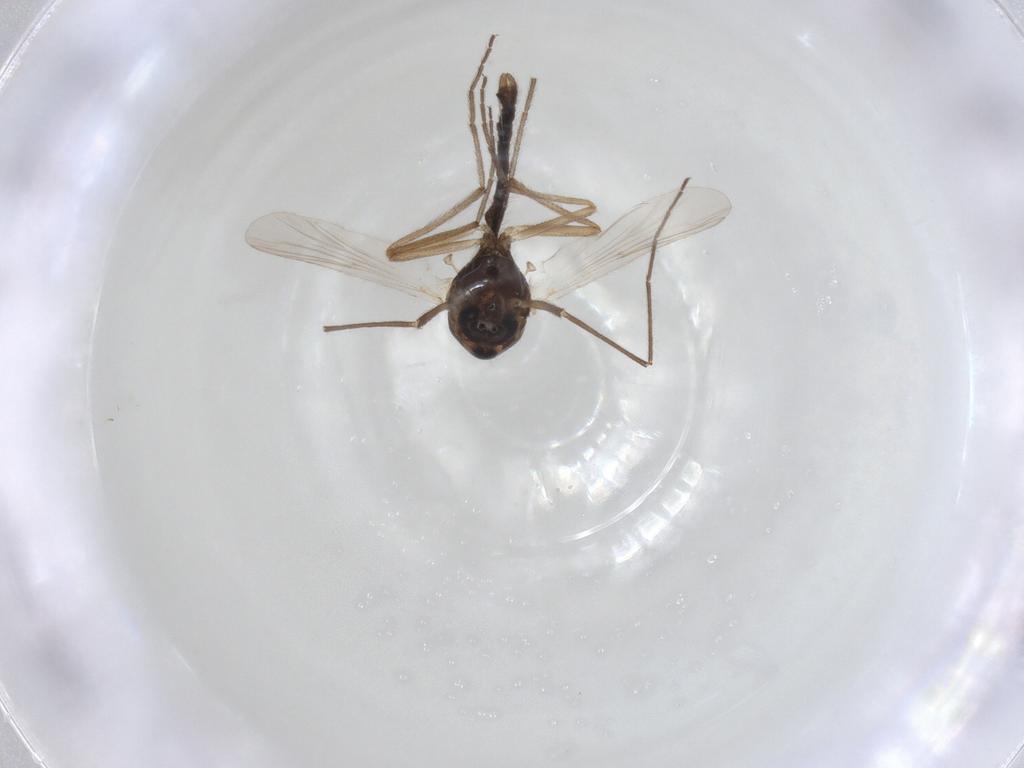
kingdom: Animalia
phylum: Arthropoda
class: Insecta
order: Diptera
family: Chironomidae
